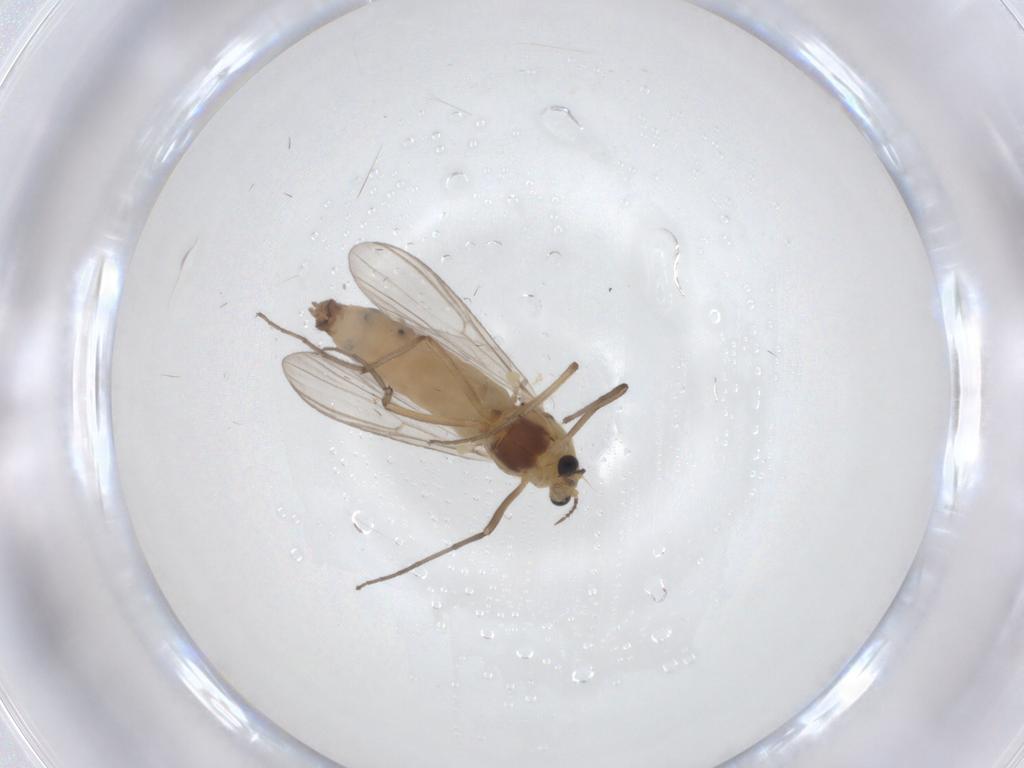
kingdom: Animalia
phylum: Arthropoda
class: Insecta
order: Diptera
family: Chironomidae
